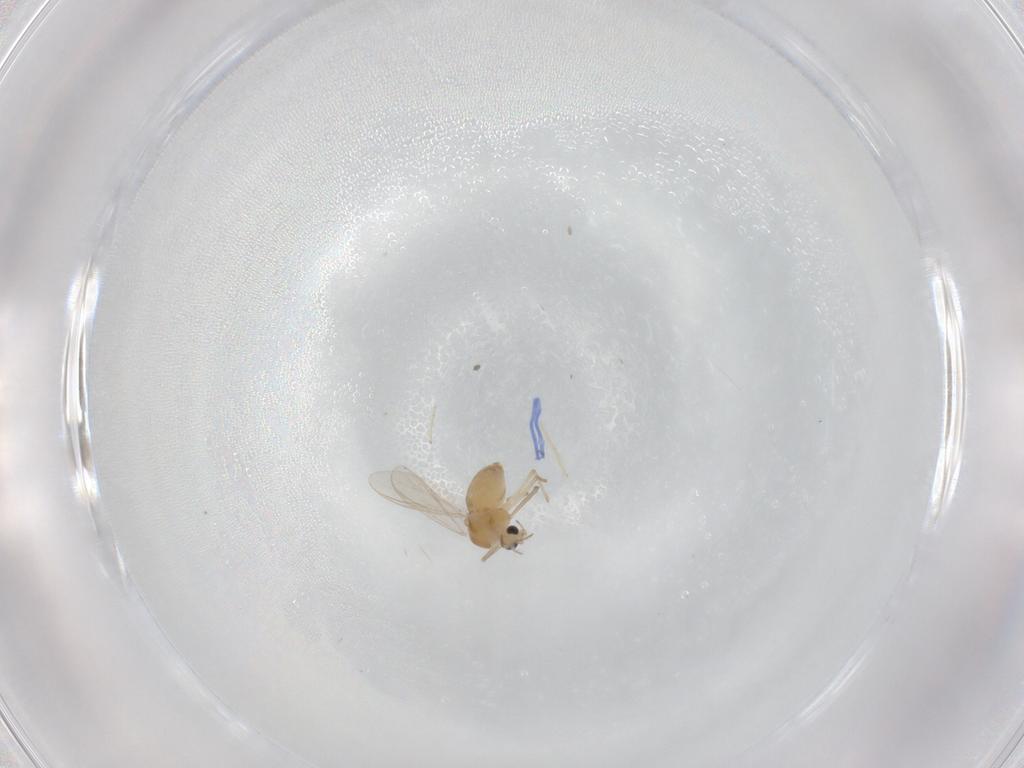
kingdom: Animalia
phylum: Arthropoda
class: Insecta
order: Diptera
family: Chironomidae
